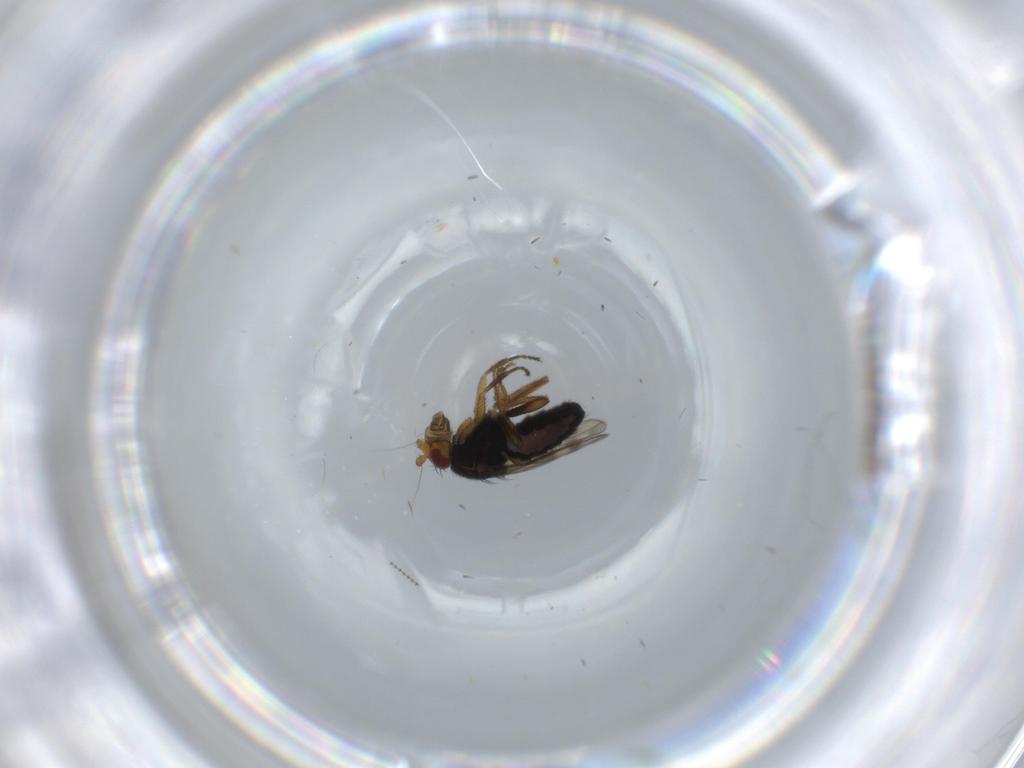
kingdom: Animalia
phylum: Arthropoda
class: Insecta
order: Diptera
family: Sphaeroceridae
